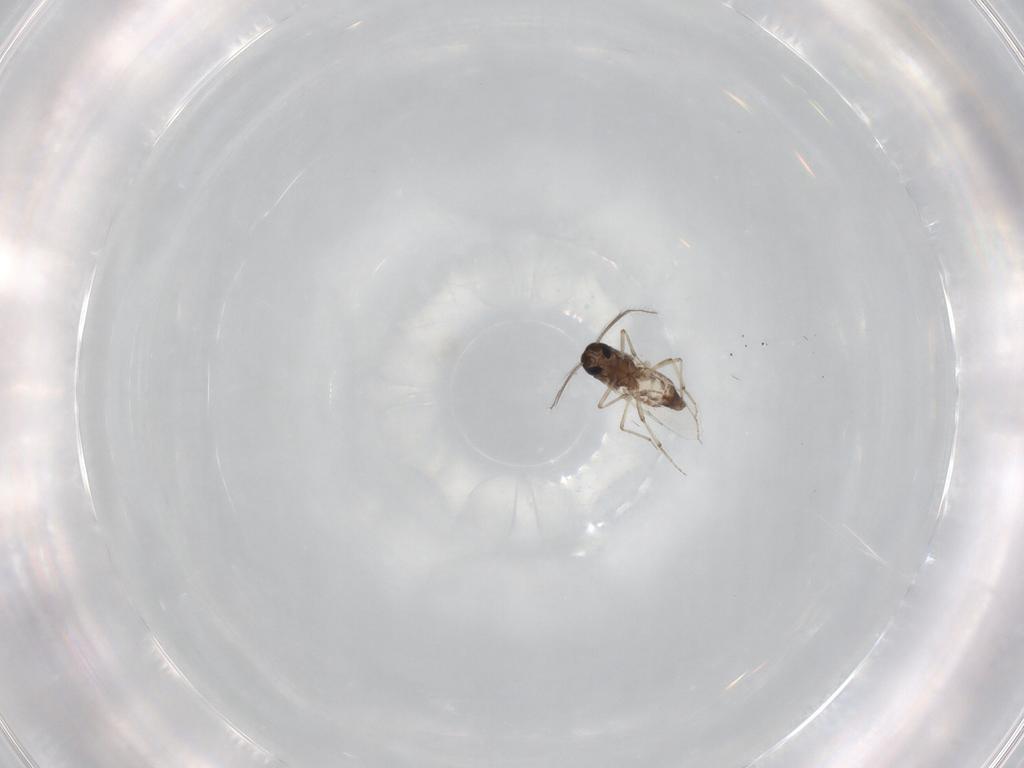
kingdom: Animalia
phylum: Arthropoda
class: Insecta
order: Diptera
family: Ceratopogonidae
